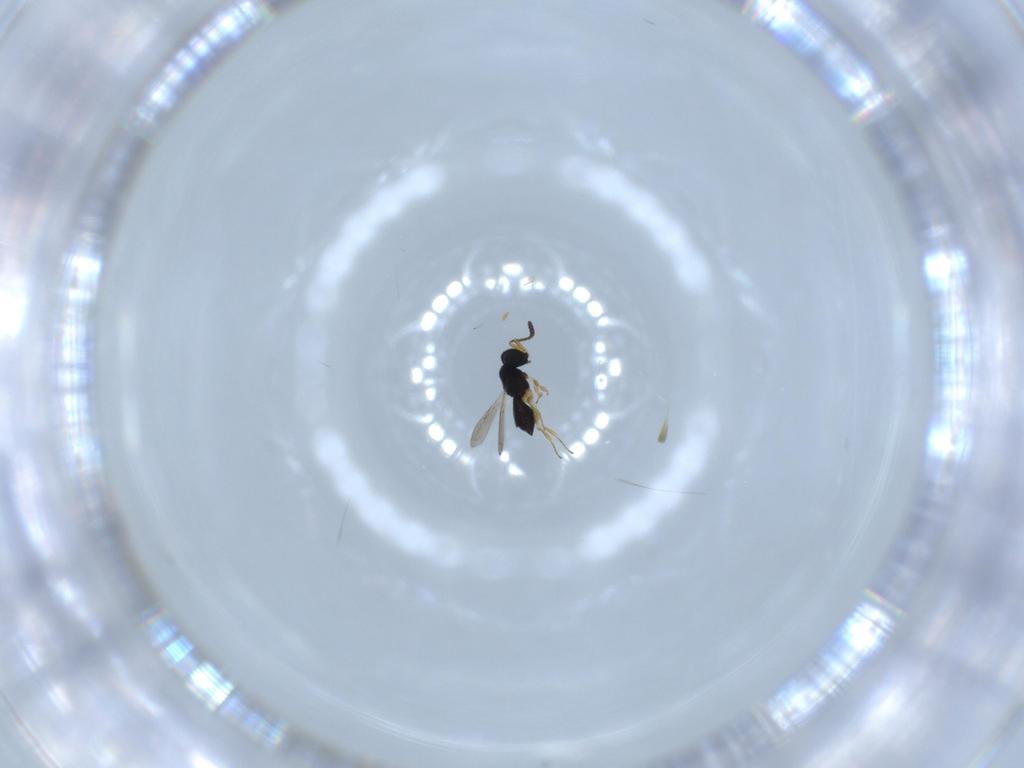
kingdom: Animalia
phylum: Arthropoda
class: Insecta
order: Hymenoptera
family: Scelionidae
